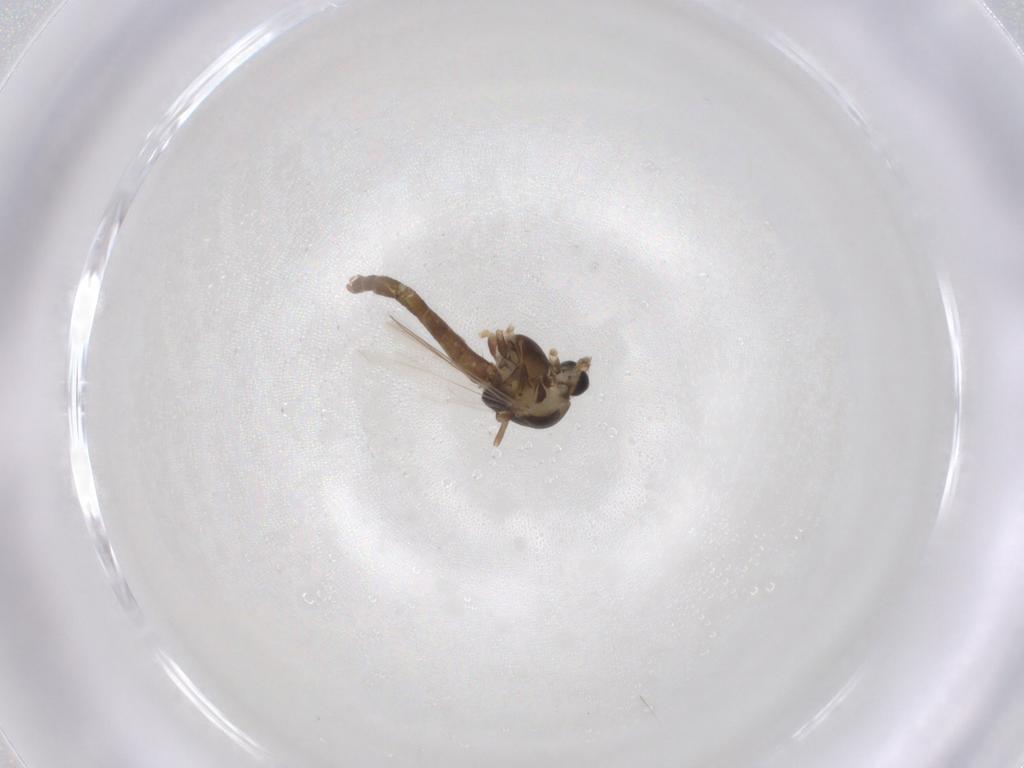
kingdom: Animalia
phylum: Arthropoda
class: Insecta
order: Diptera
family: Chironomidae
